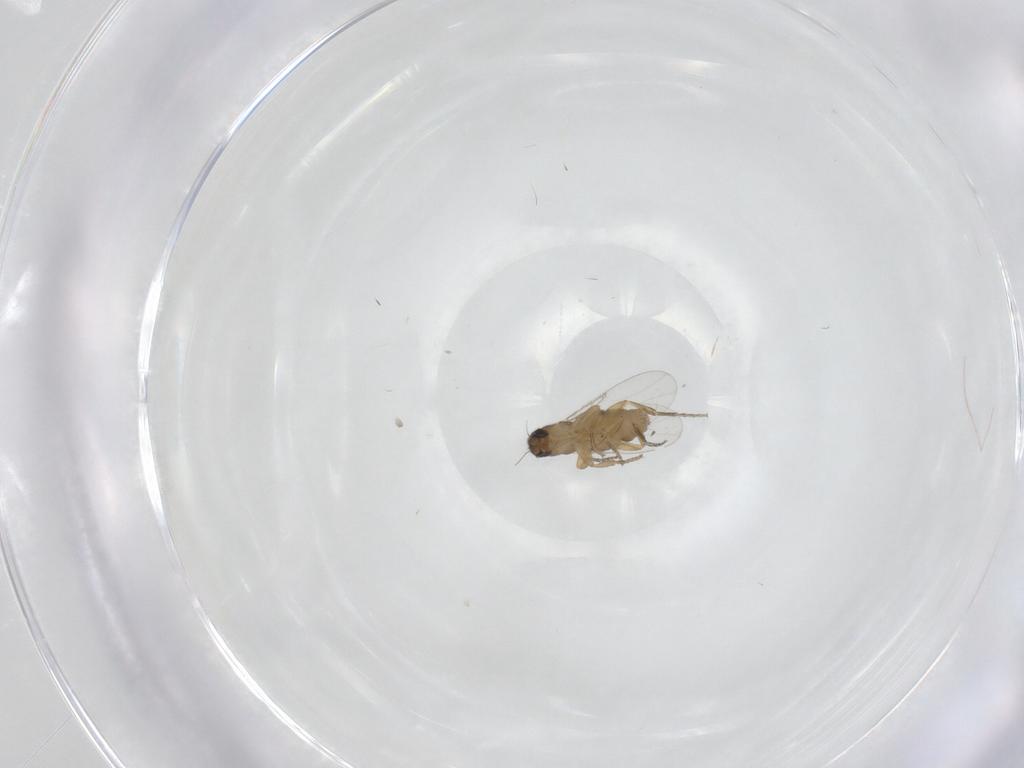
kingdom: Animalia
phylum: Arthropoda
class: Insecta
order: Diptera
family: Phoridae
